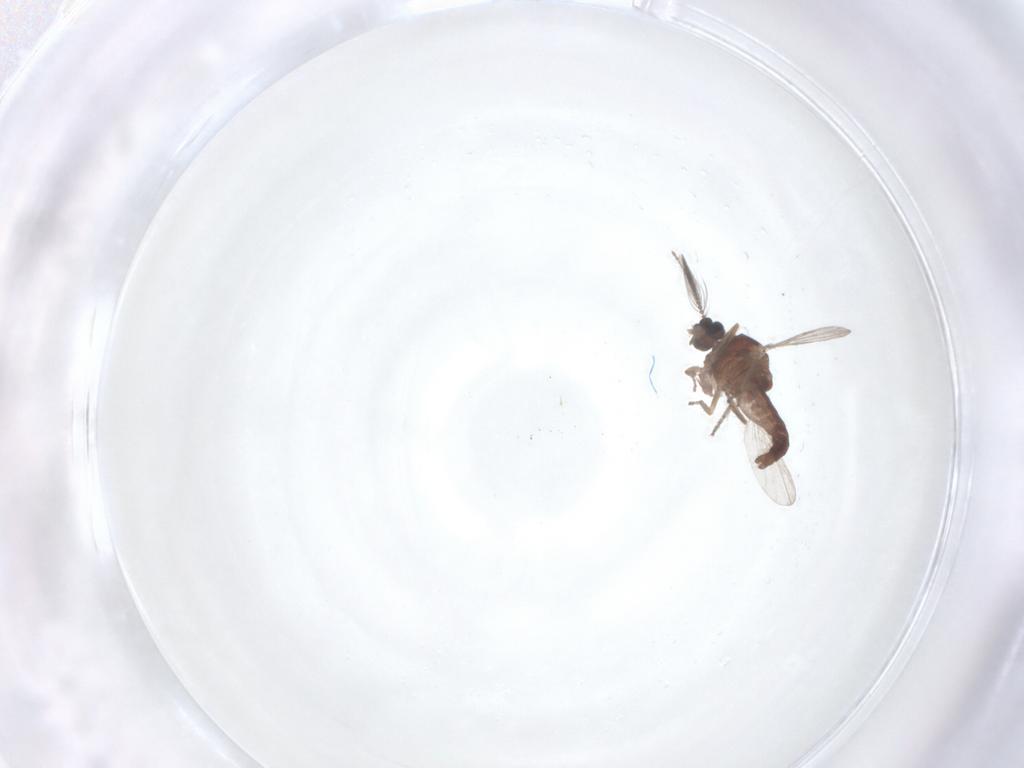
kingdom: Animalia
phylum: Arthropoda
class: Insecta
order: Diptera
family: Ceratopogonidae
